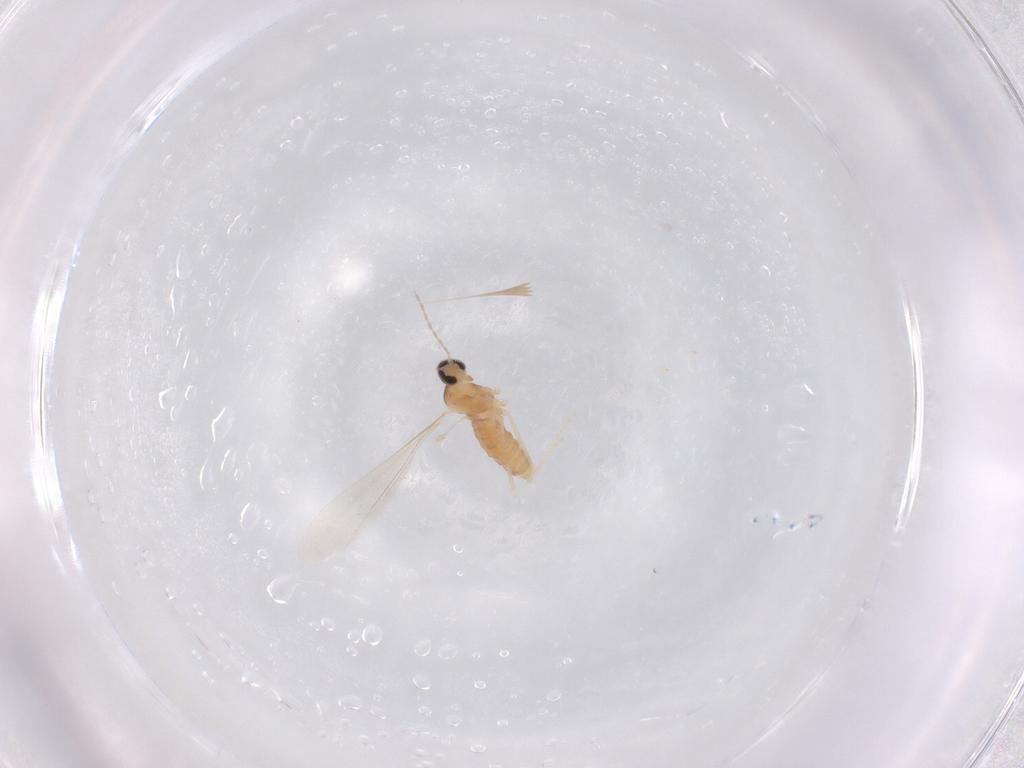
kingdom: Animalia
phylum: Arthropoda
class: Insecta
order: Diptera
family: Cecidomyiidae
